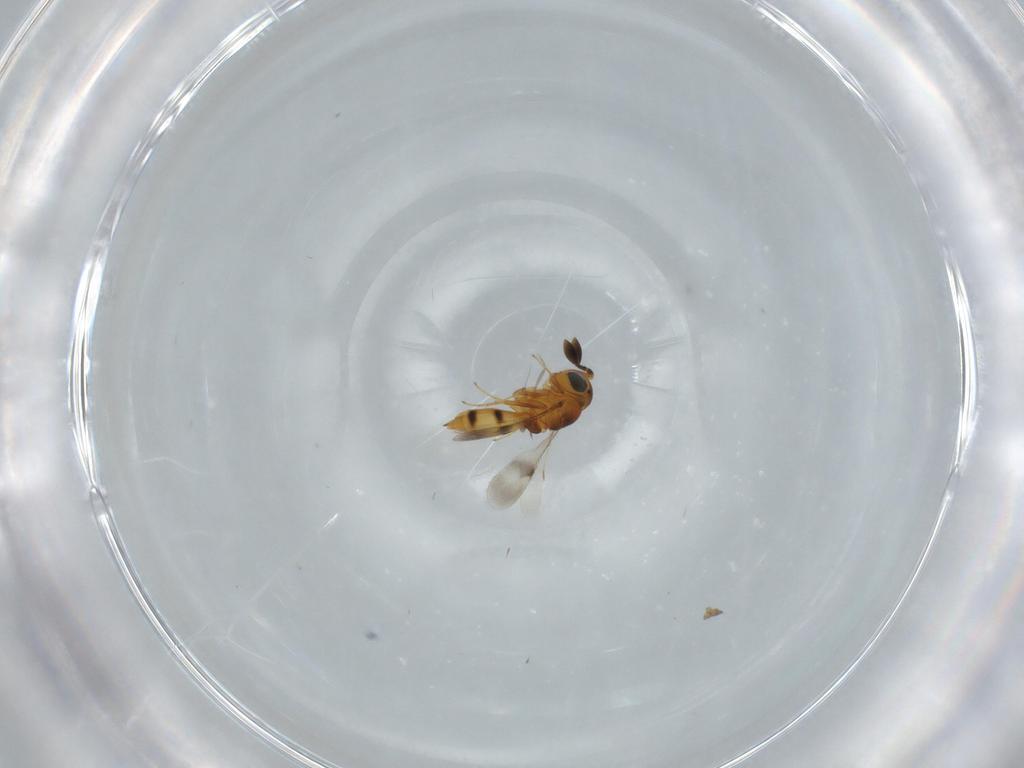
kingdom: Animalia
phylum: Arthropoda
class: Insecta
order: Hymenoptera
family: Scelionidae
